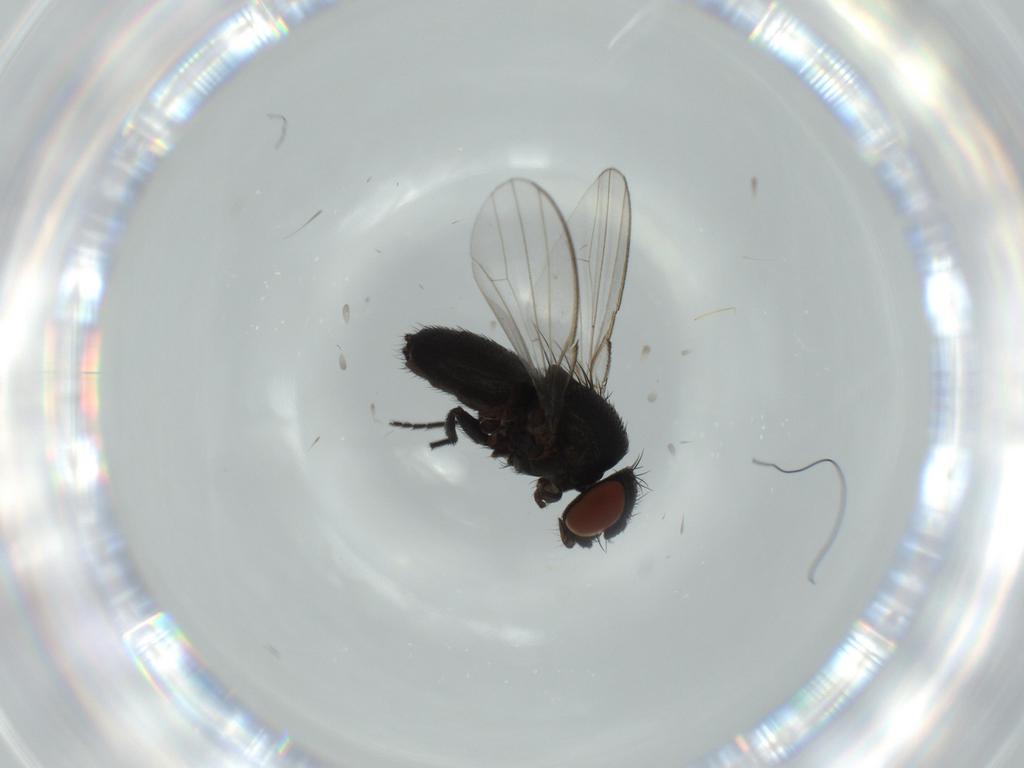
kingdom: Animalia
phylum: Arthropoda
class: Insecta
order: Diptera
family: Milichiidae
